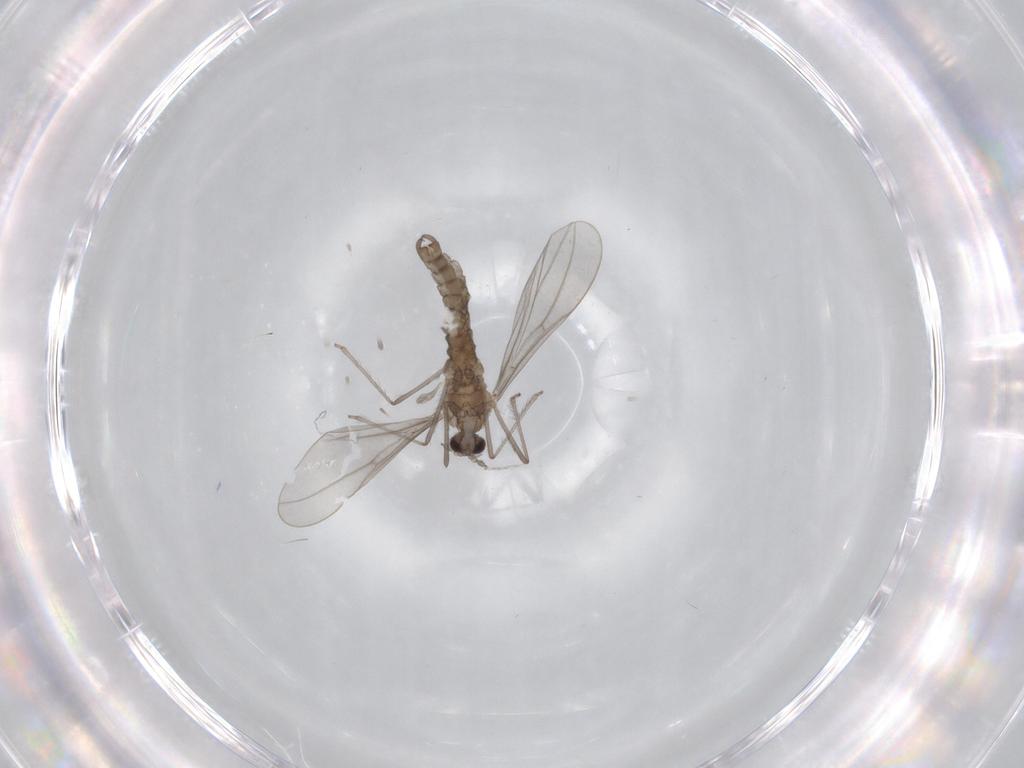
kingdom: Animalia
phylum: Arthropoda
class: Insecta
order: Diptera
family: Cecidomyiidae
